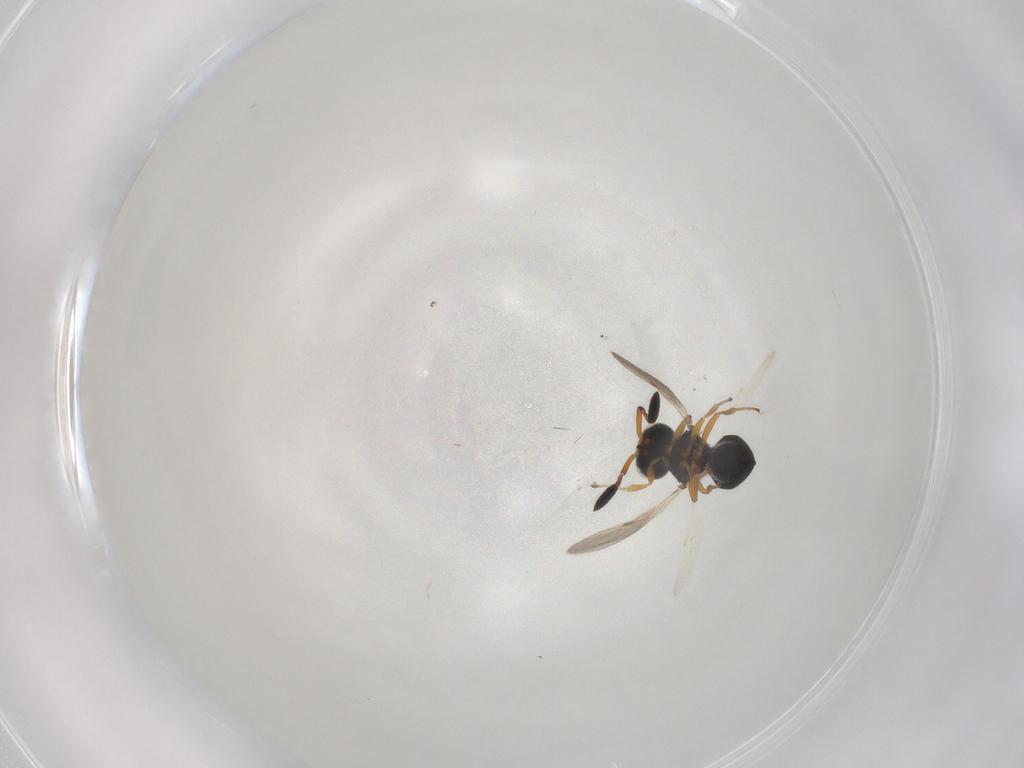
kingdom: Animalia
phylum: Arthropoda
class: Insecta
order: Hymenoptera
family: Scelionidae
